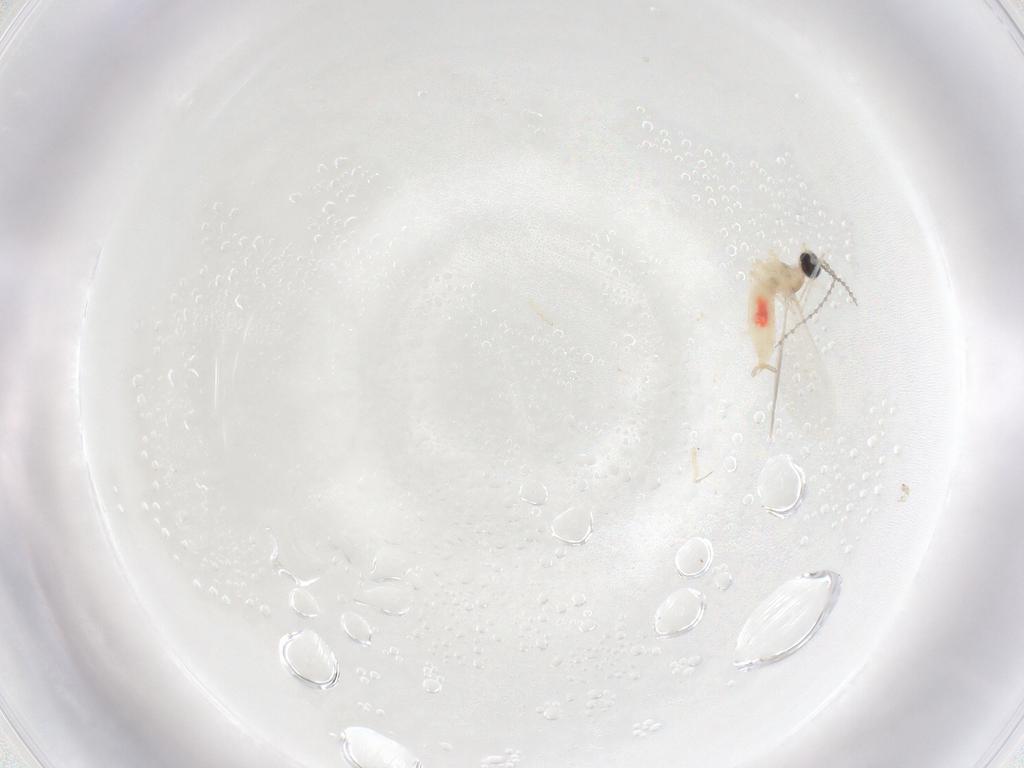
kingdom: Animalia
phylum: Arthropoda
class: Insecta
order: Diptera
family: Cecidomyiidae
